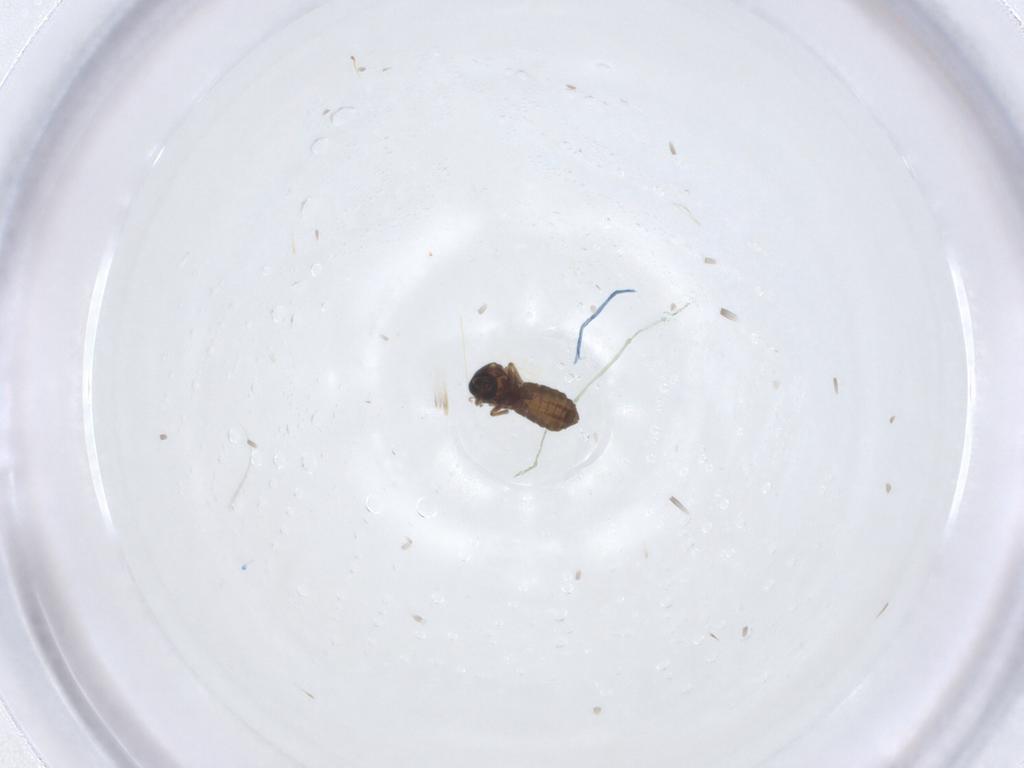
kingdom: Animalia
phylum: Arthropoda
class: Insecta
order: Diptera
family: Ceratopogonidae
